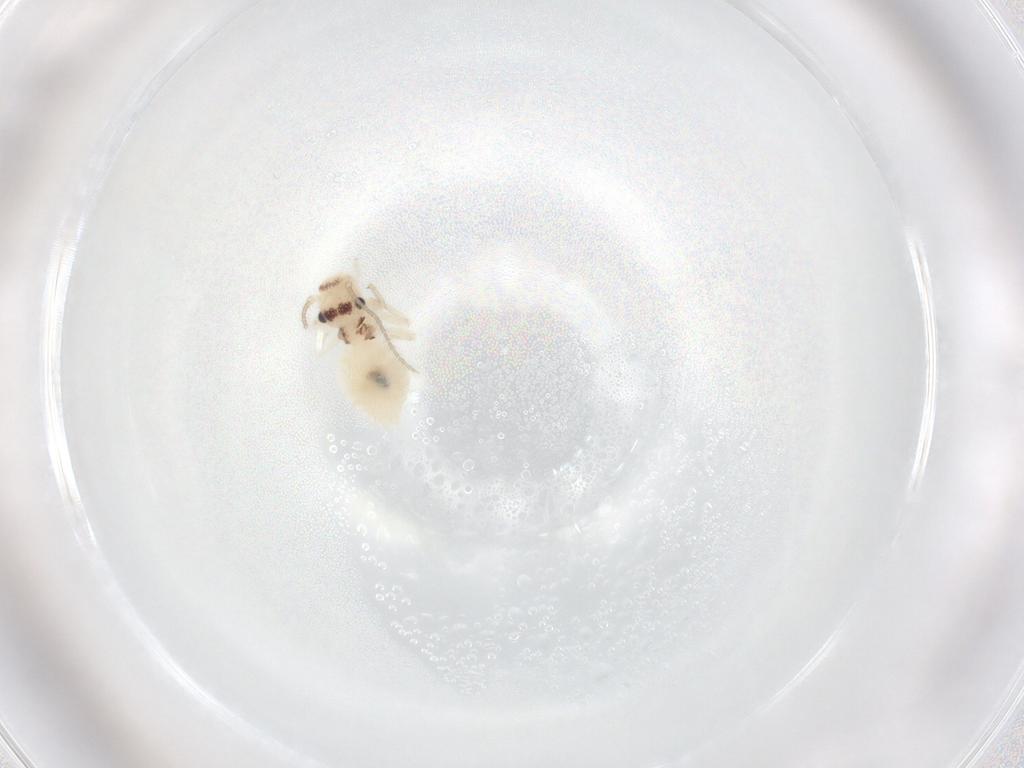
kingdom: Animalia
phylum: Arthropoda
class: Insecta
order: Psocodea
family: Amphipsocidae
